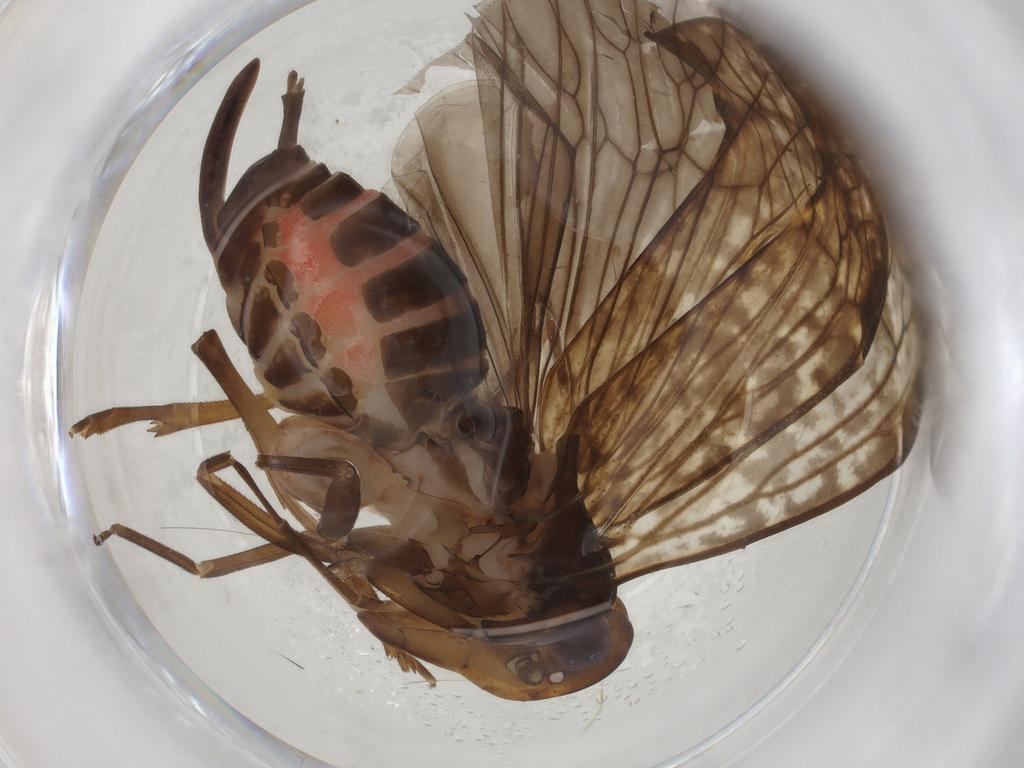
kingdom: Animalia
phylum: Arthropoda
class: Insecta
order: Hemiptera
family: Cixiidae
